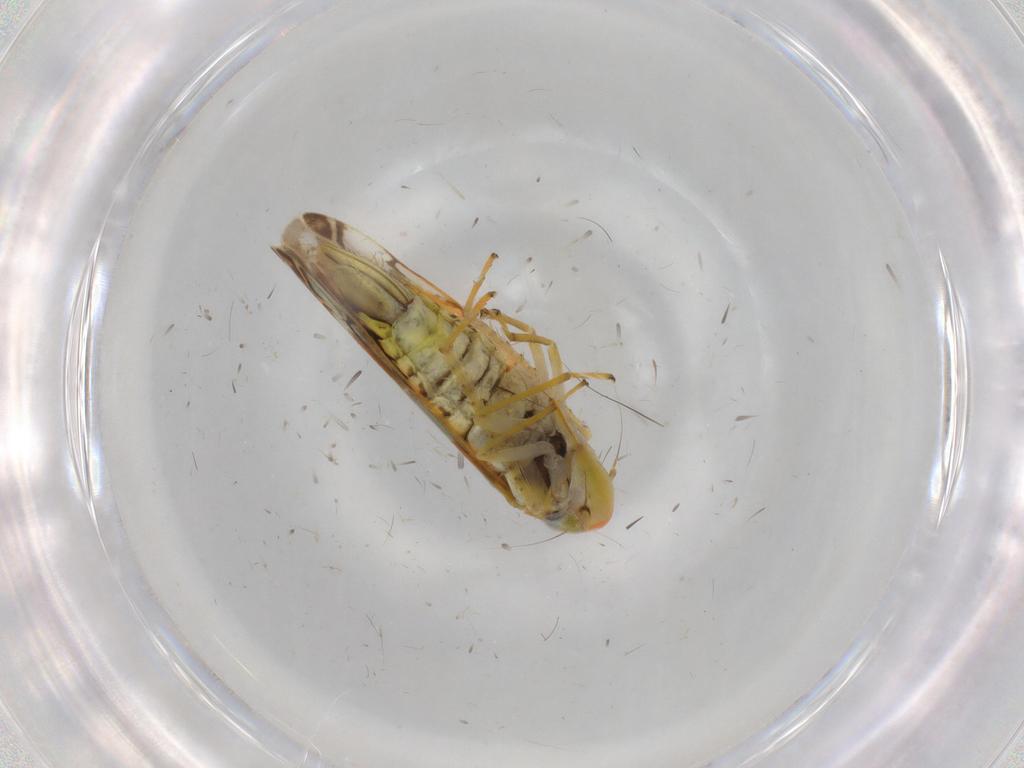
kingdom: Animalia
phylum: Arthropoda
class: Insecta
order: Hemiptera
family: Cicadellidae
